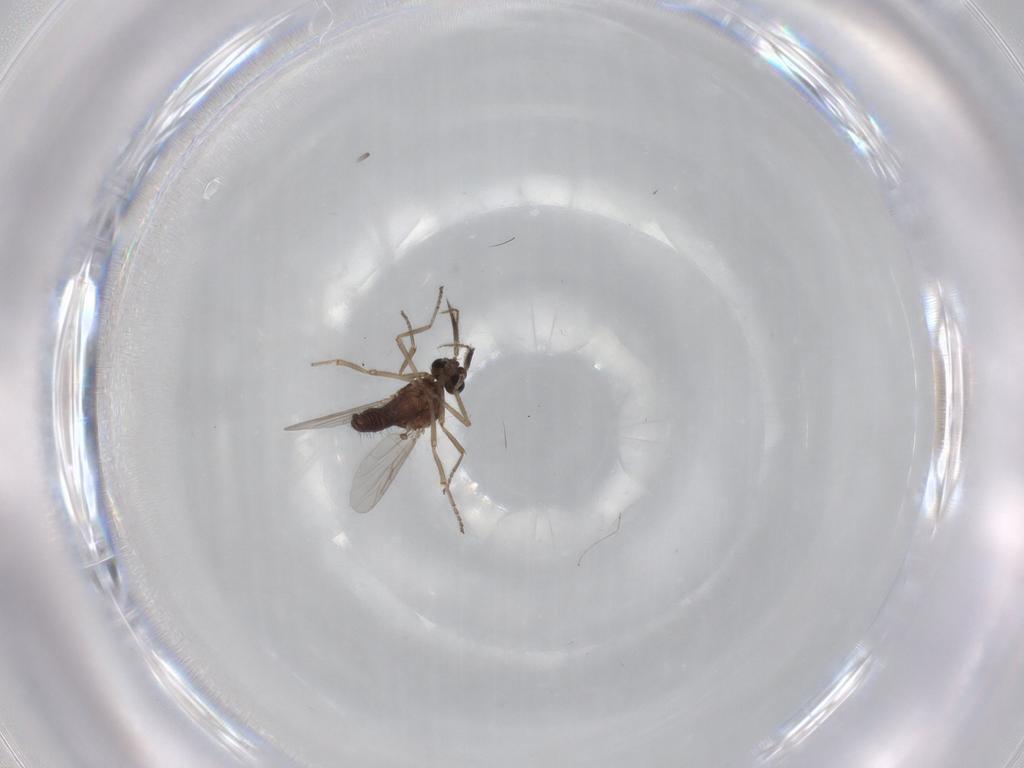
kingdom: Animalia
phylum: Arthropoda
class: Insecta
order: Diptera
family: Ceratopogonidae
